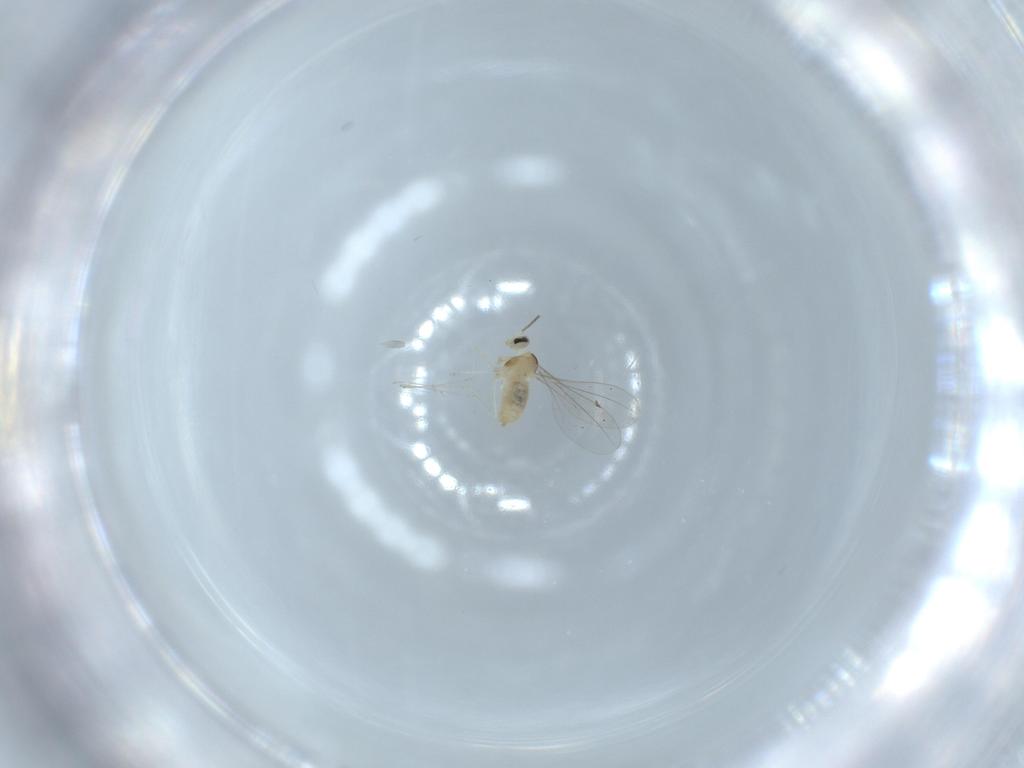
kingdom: Animalia
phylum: Arthropoda
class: Insecta
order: Diptera
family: Cecidomyiidae
